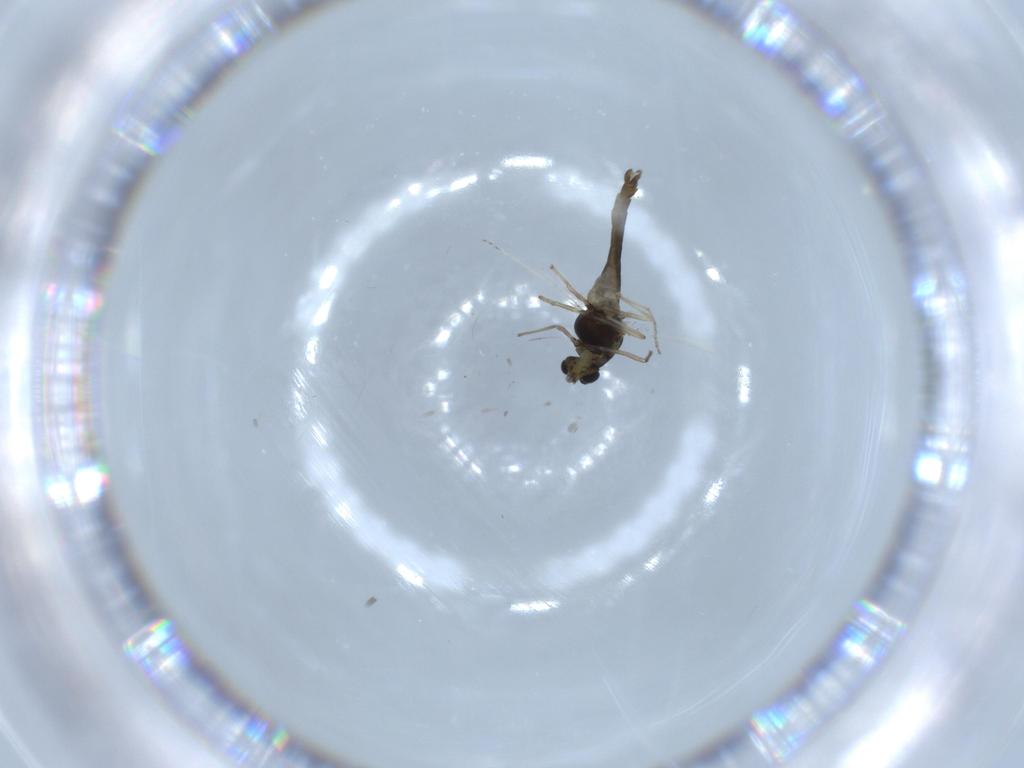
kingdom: Animalia
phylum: Arthropoda
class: Insecta
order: Diptera
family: Chironomidae
